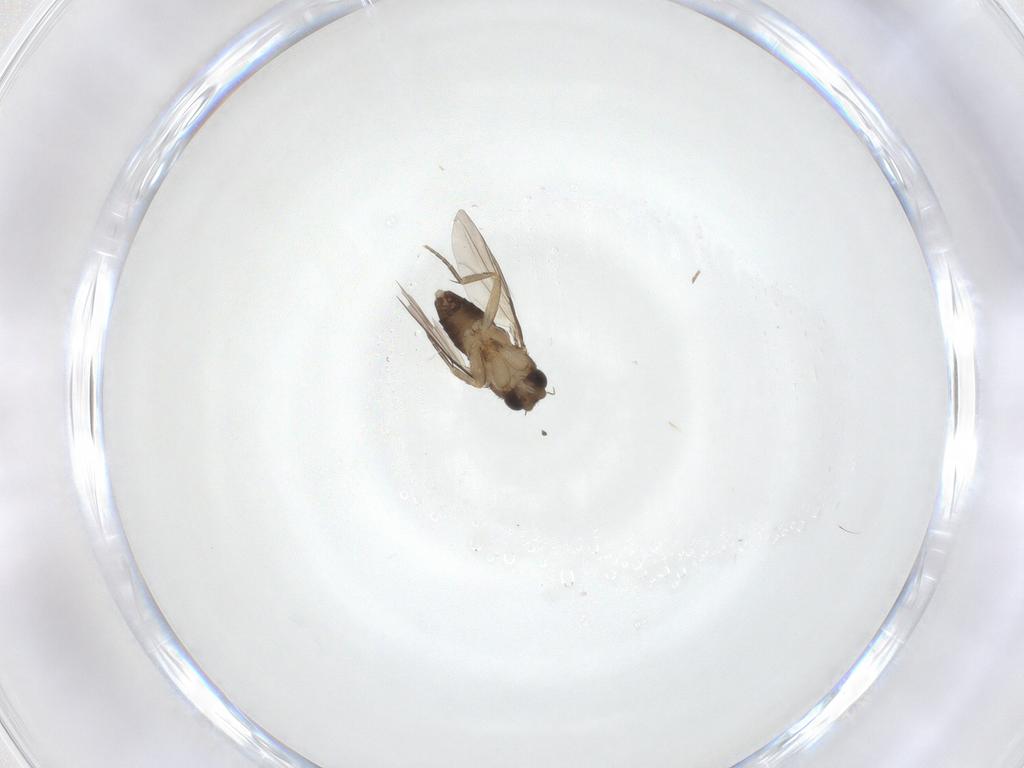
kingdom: Animalia
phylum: Arthropoda
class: Insecta
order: Diptera
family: Phoridae
